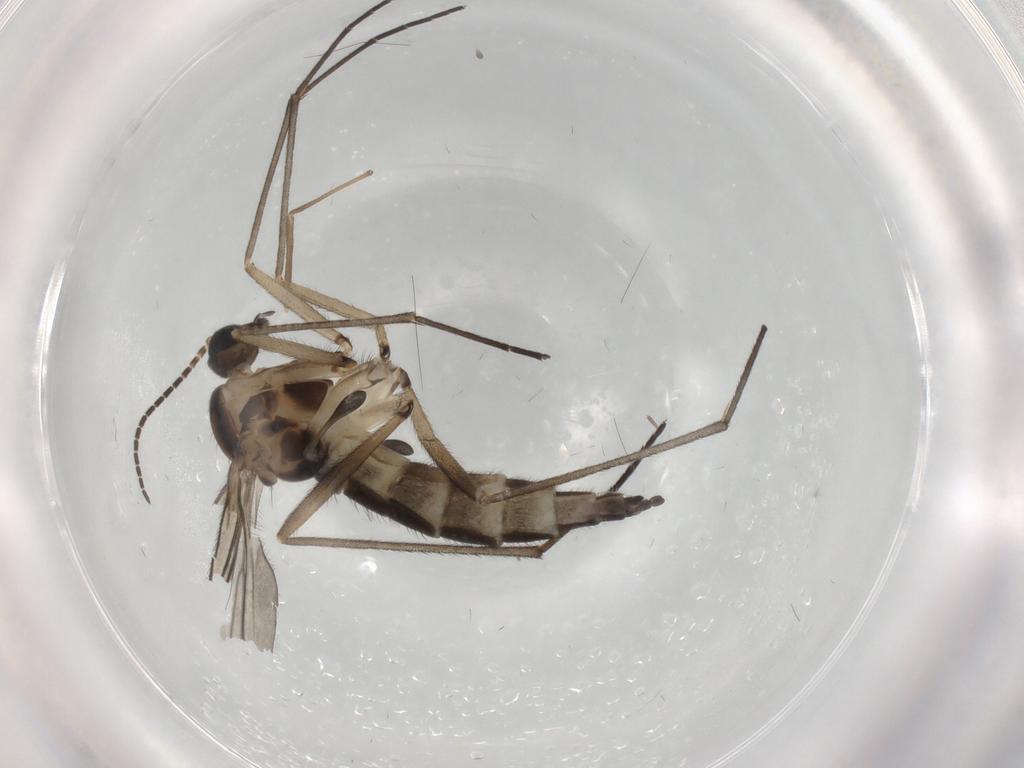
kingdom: Animalia
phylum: Arthropoda
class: Insecta
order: Diptera
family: Sciaridae
